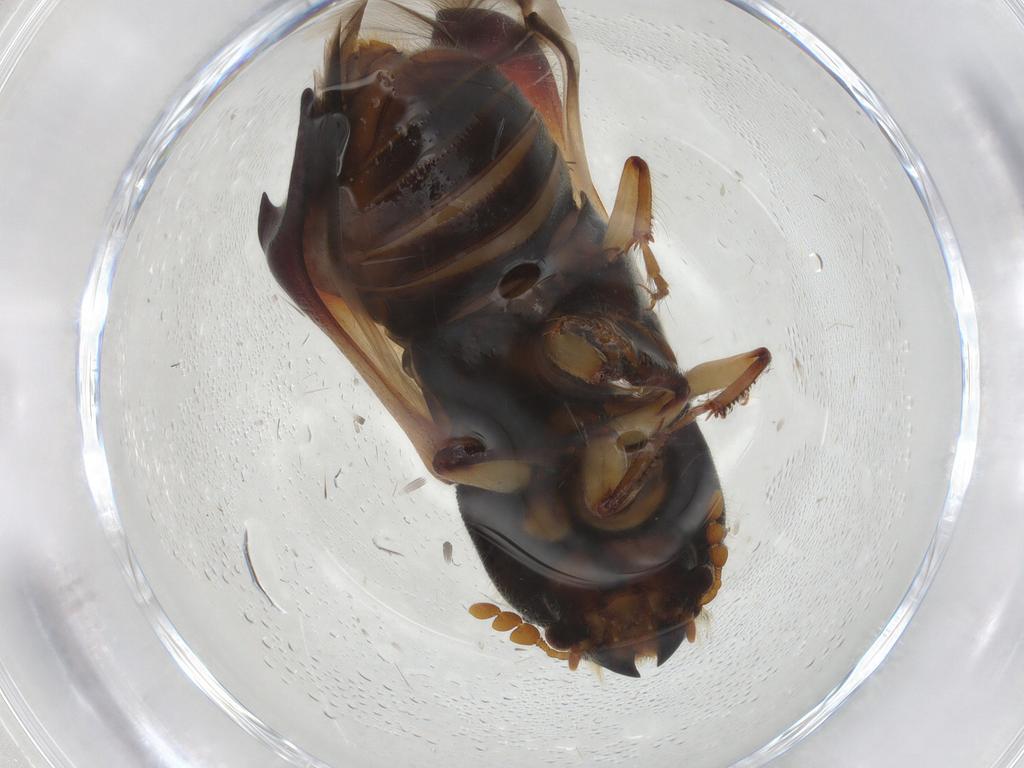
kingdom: Animalia
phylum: Arthropoda
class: Insecta
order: Coleoptera
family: Bostrichidae
